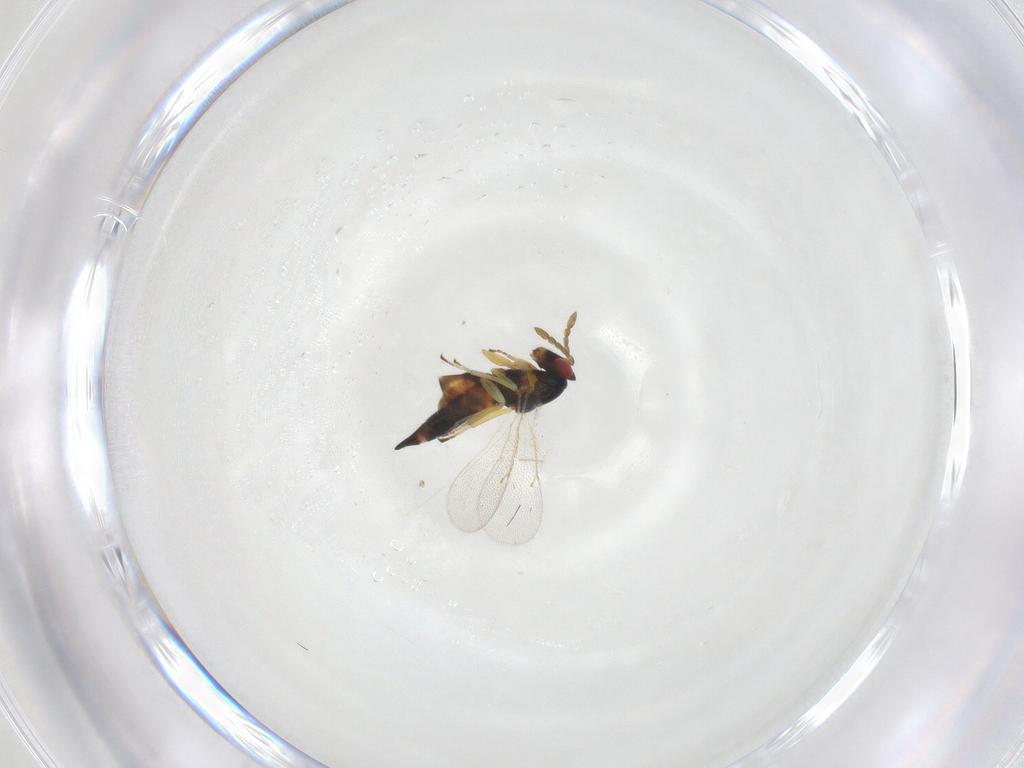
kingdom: Animalia
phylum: Arthropoda
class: Insecta
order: Hymenoptera
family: Eulophidae
